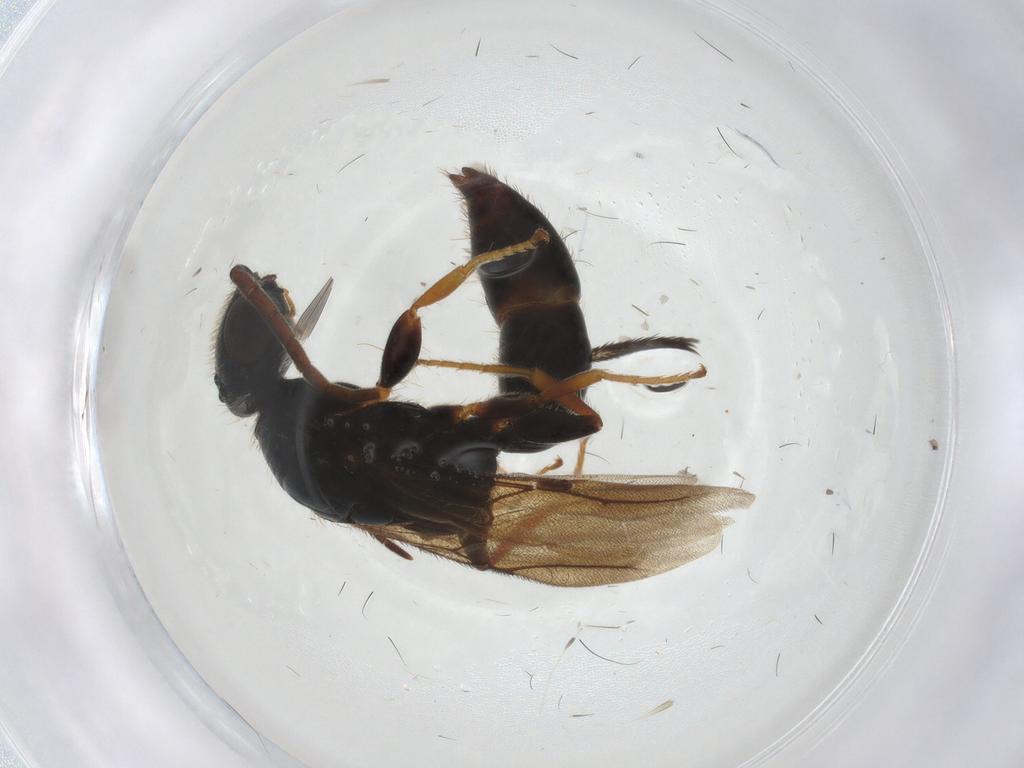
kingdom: Animalia
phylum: Arthropoda
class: Insecta
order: Hymenoptera
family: Bethylidae
